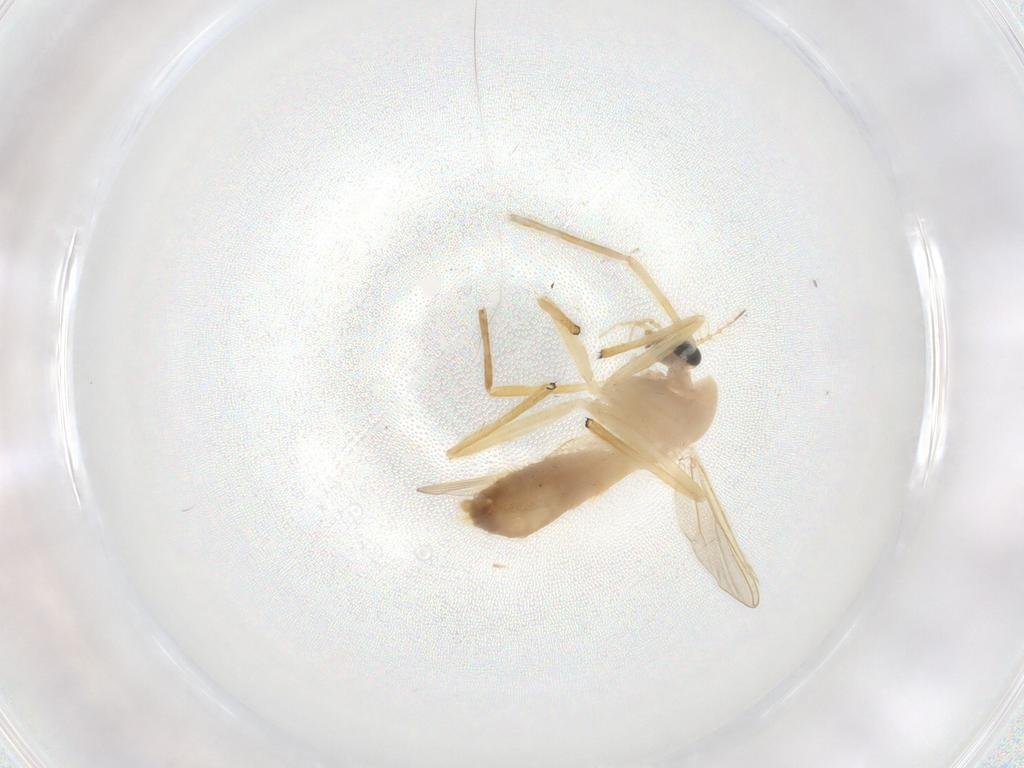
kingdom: Animalia
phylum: Arthropoda
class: Insecta
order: Diptera
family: Chironomidae
